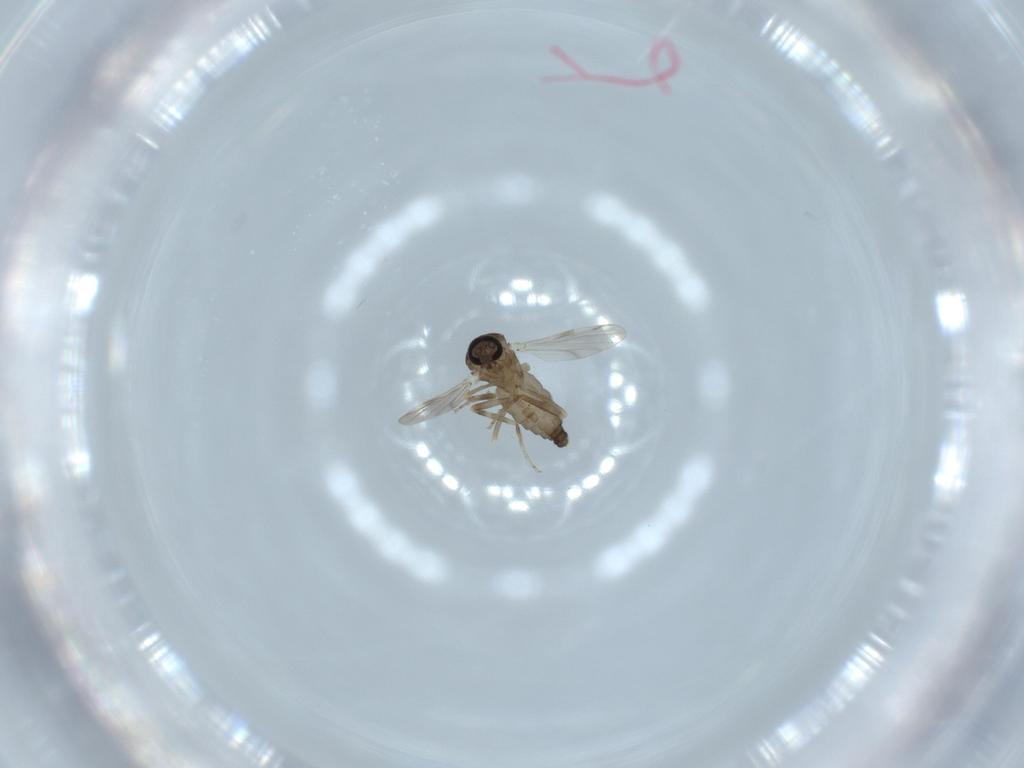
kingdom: Animalia
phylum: Arthropoda
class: Insecta
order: Diptera
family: Ceratopogonidae
